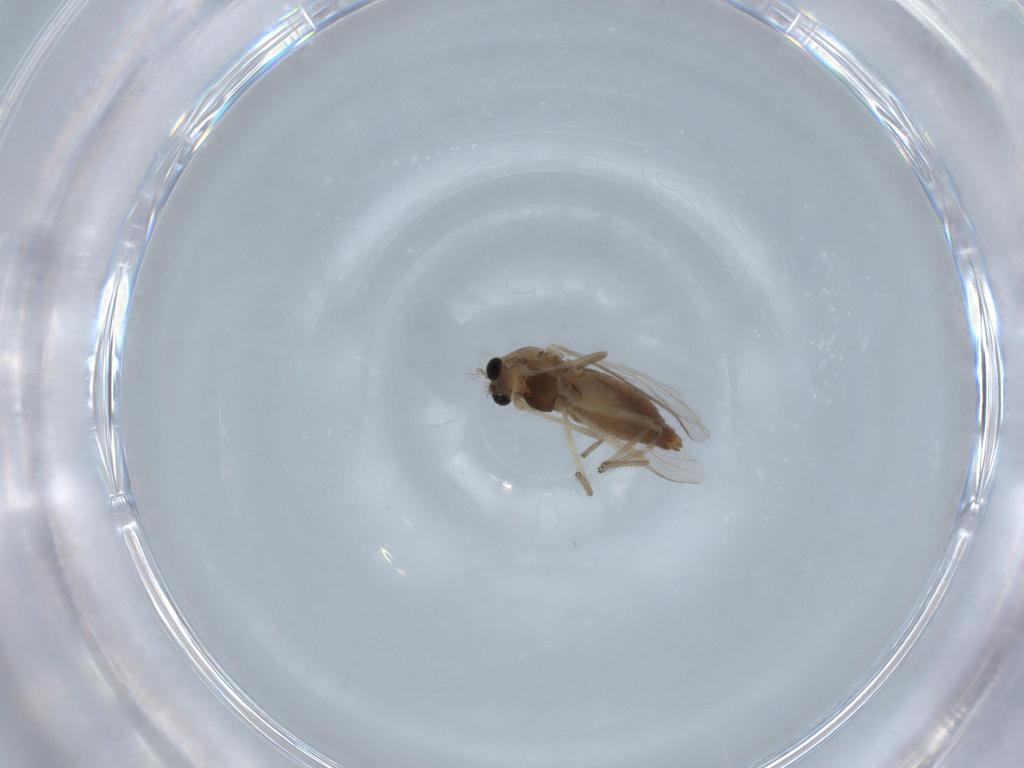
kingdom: Animalia
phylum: Arthropoda
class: Insecta
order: Diptera
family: Chironomidae
